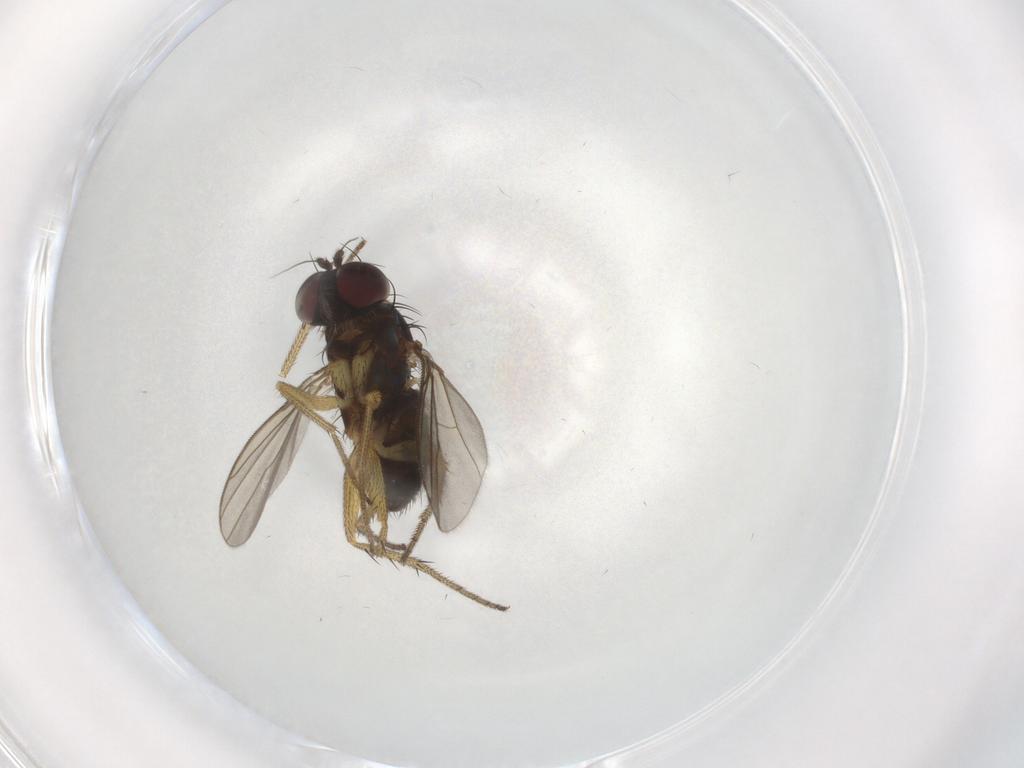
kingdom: Animalia
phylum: Arthropoda
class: Insecta
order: Diptera
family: Dolichopodidae
